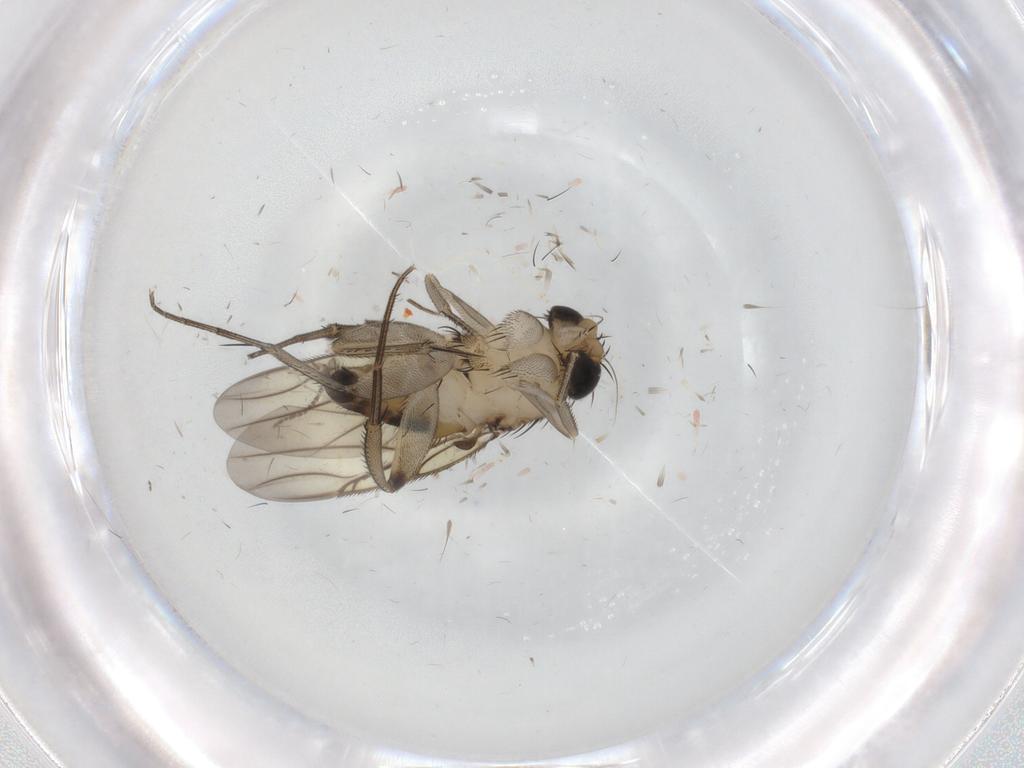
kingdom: Animalia
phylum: Arthropoda
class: Insecta
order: Diptera
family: Phoridae
